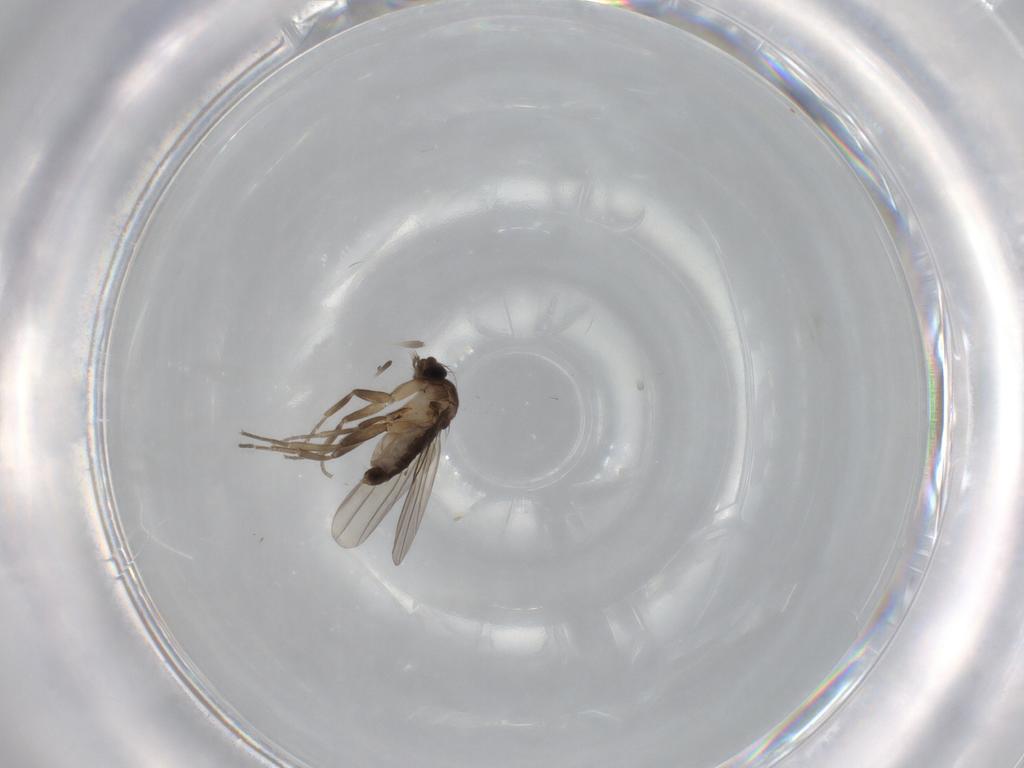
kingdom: Animalia
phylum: Arthropoda
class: Insecta
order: Diptera
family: Phoridae
